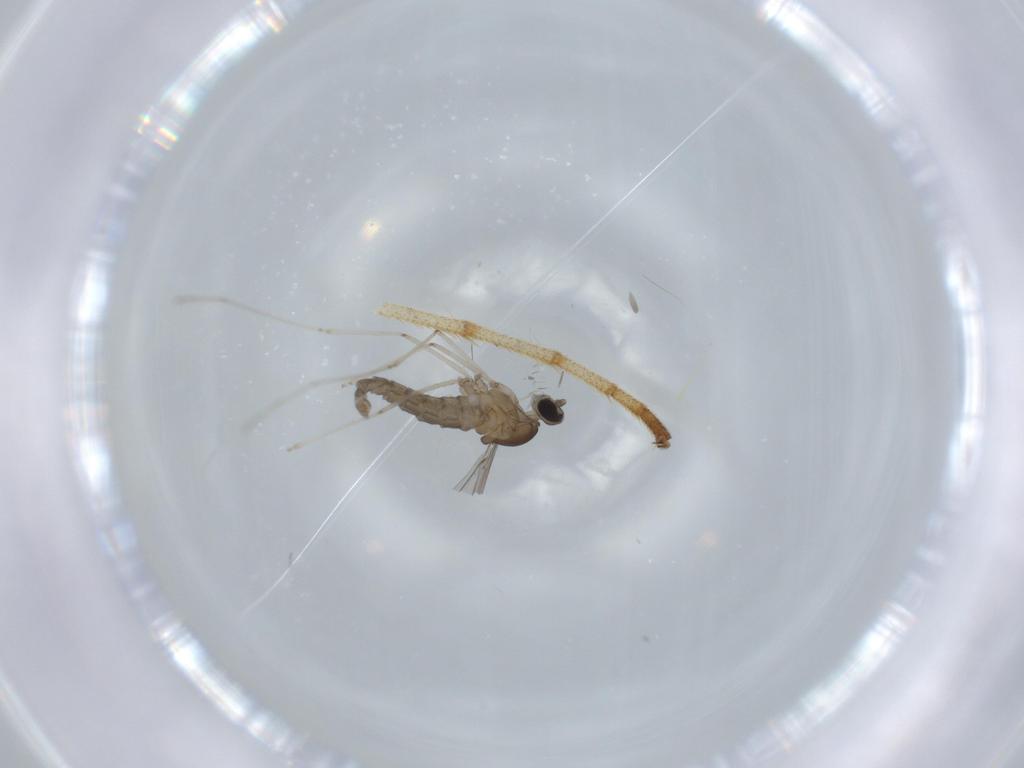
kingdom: Animalia
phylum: Arthropoda
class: Insecta
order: Diptera
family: Cecidomyiidae
